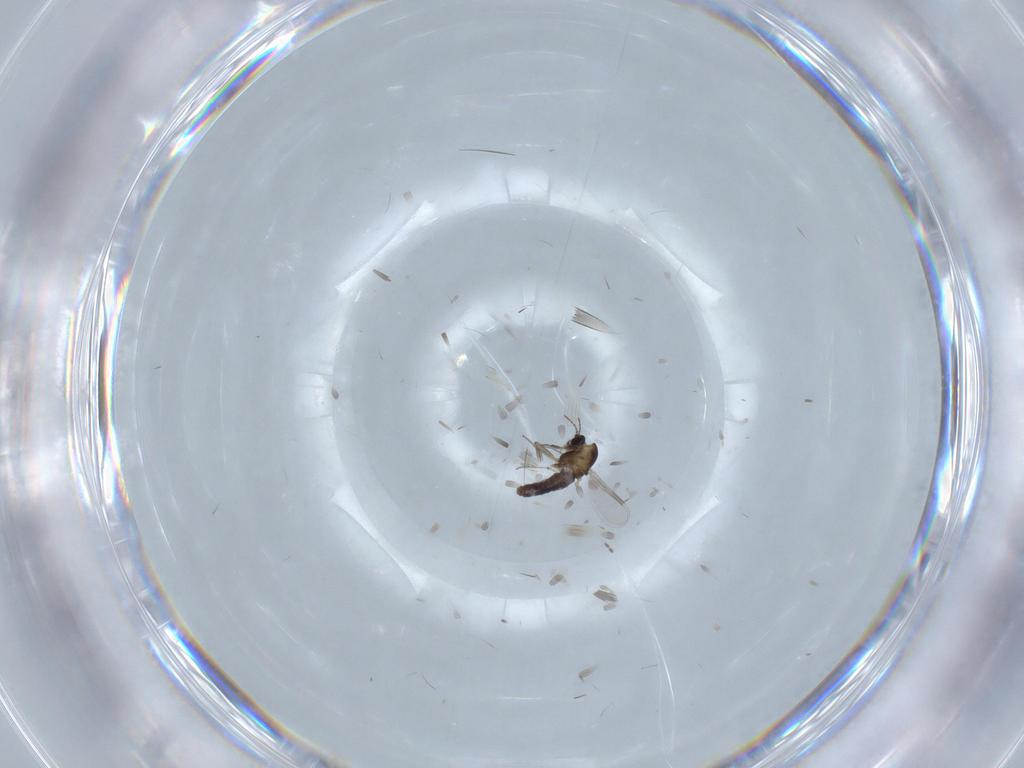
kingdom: Animalia
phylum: Arthropoda
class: Insecta
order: Diptera
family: Chironomidae
